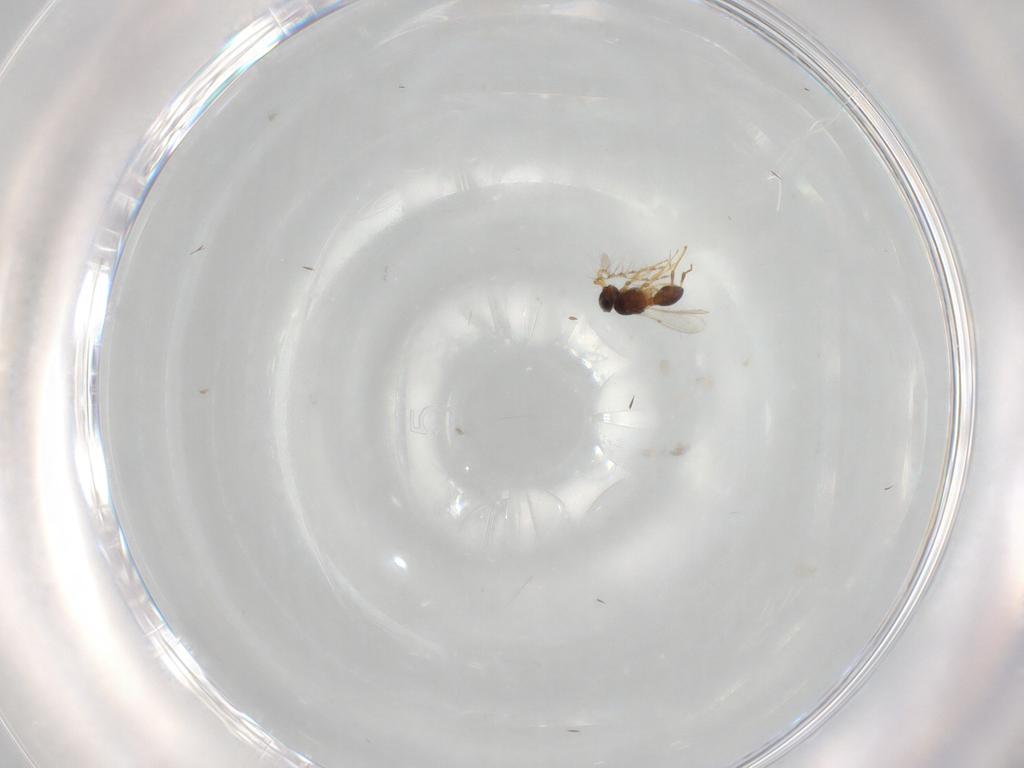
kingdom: Animalia
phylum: Arthropoda
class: Insecta
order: Hymenoptera
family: Platygastridae
